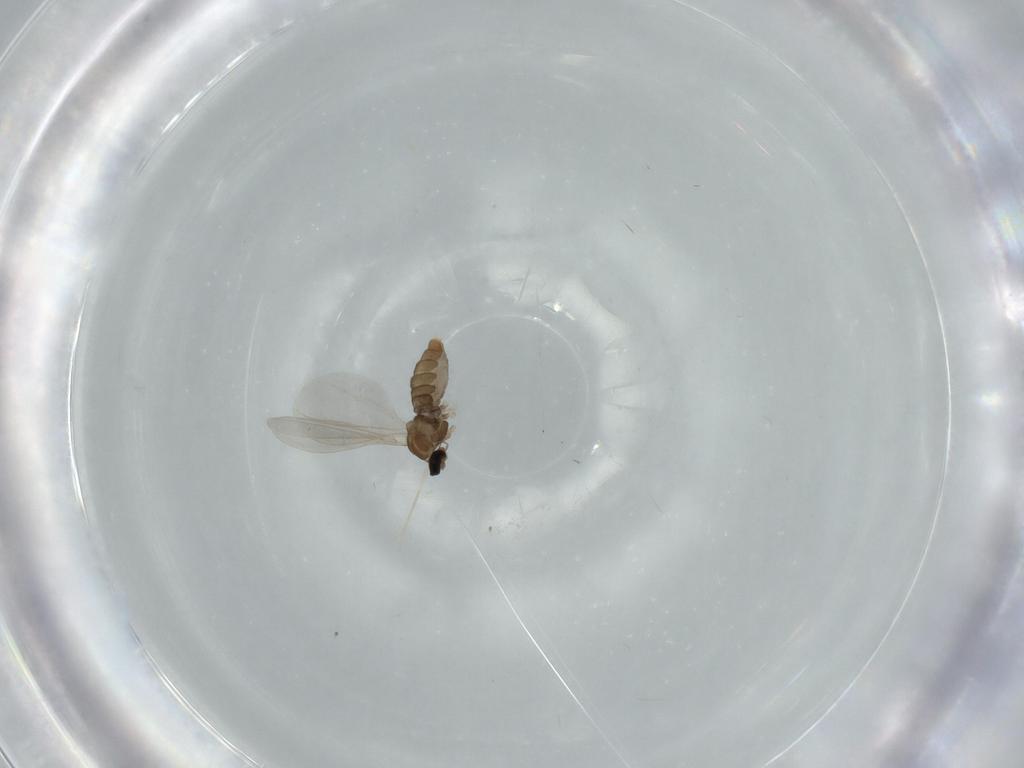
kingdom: Animalia
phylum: Arthropoda
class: Insecta
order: Diptera
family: Cecidomyiidae
